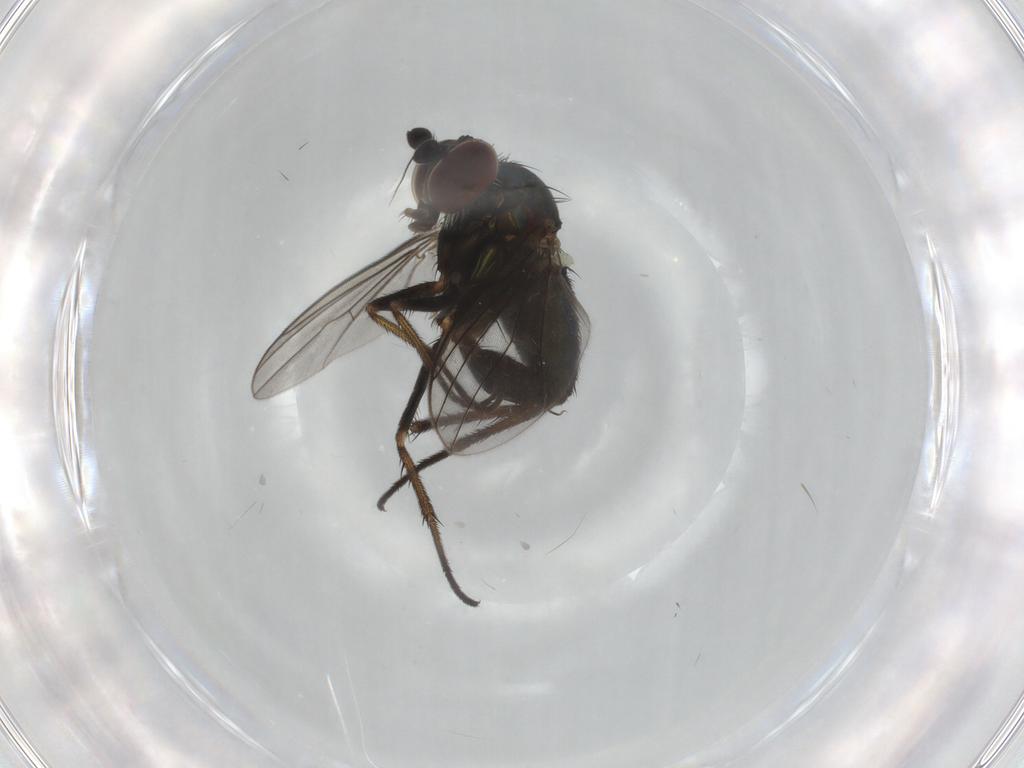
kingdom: Animalia
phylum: Arthropoda
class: Insecta
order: Diptera
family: Dolichopodidae
